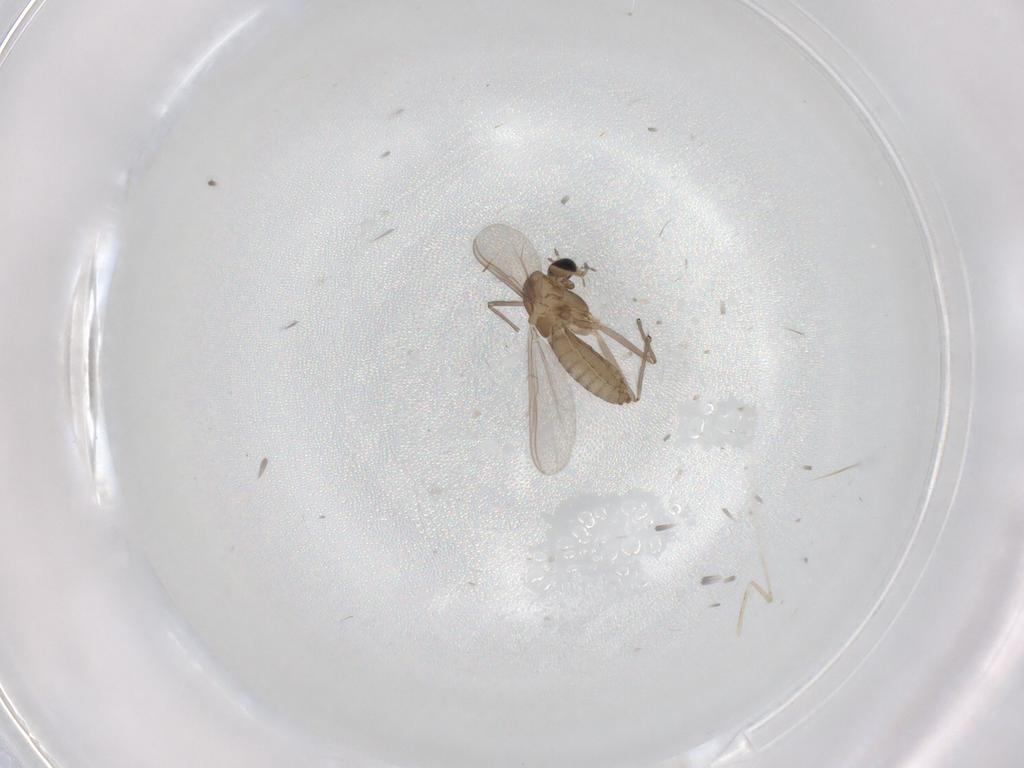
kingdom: Animalia
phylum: Arthropoda
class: Insecta
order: Diptera
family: Chironomidae
